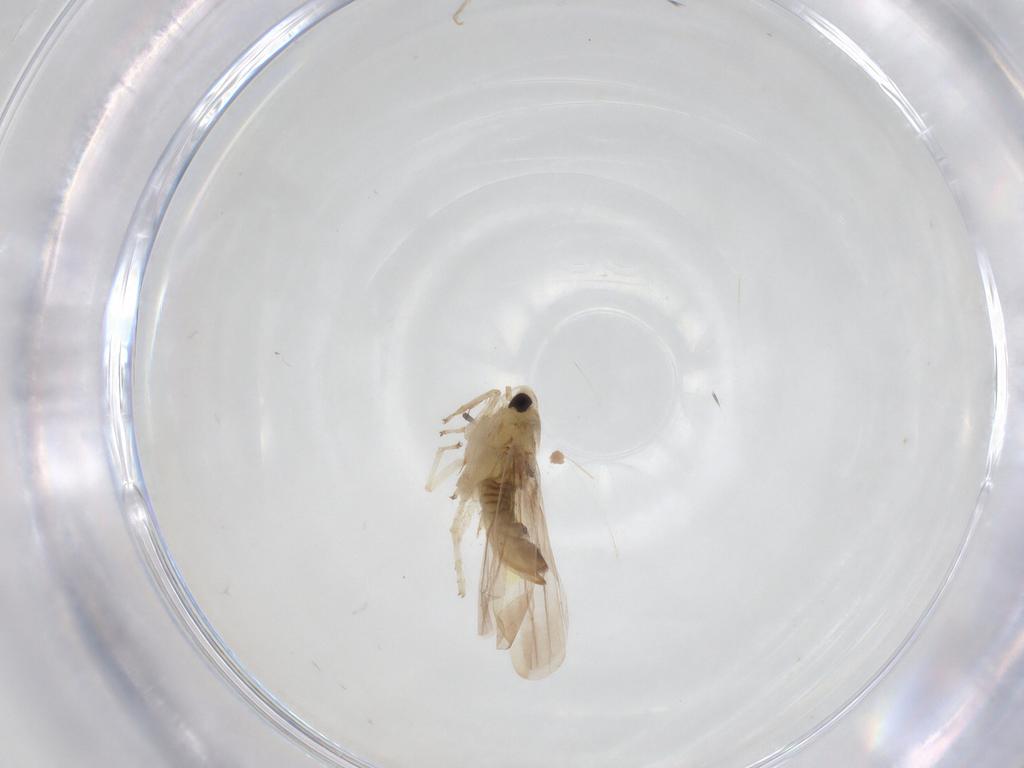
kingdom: Animalia
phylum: Arthropoda
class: Insecta
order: Hemiptera
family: Cicadellidae
